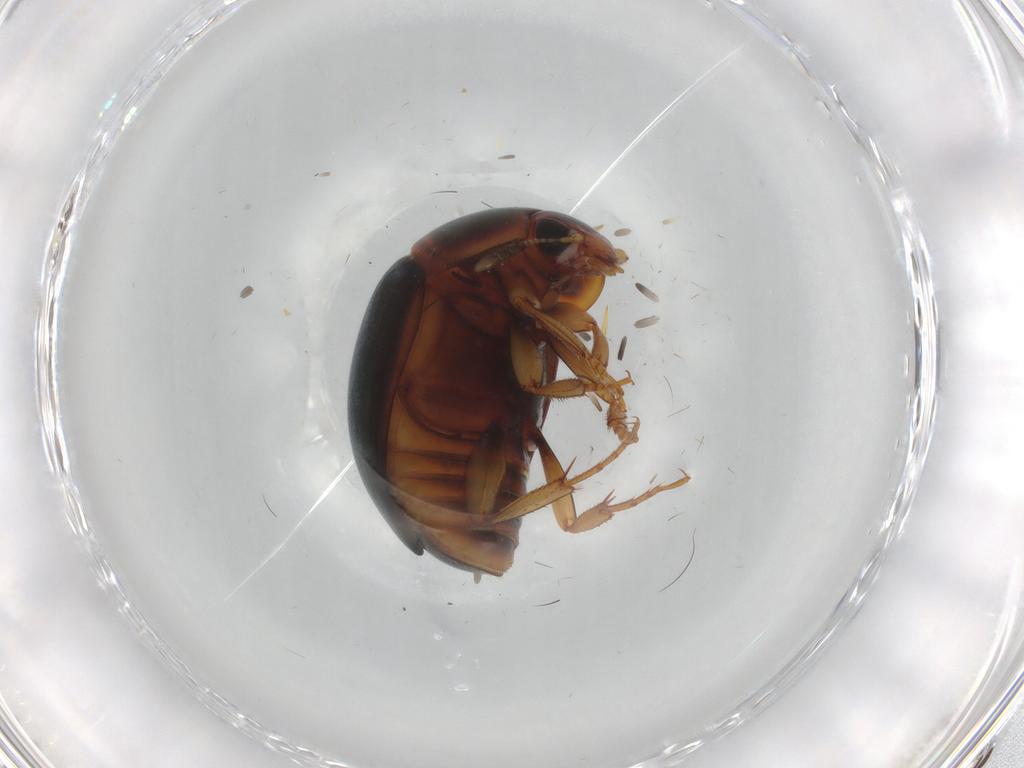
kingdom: Animalia
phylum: Arthropoda
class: Insecta
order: Coleoptera
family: Nitidulidae
